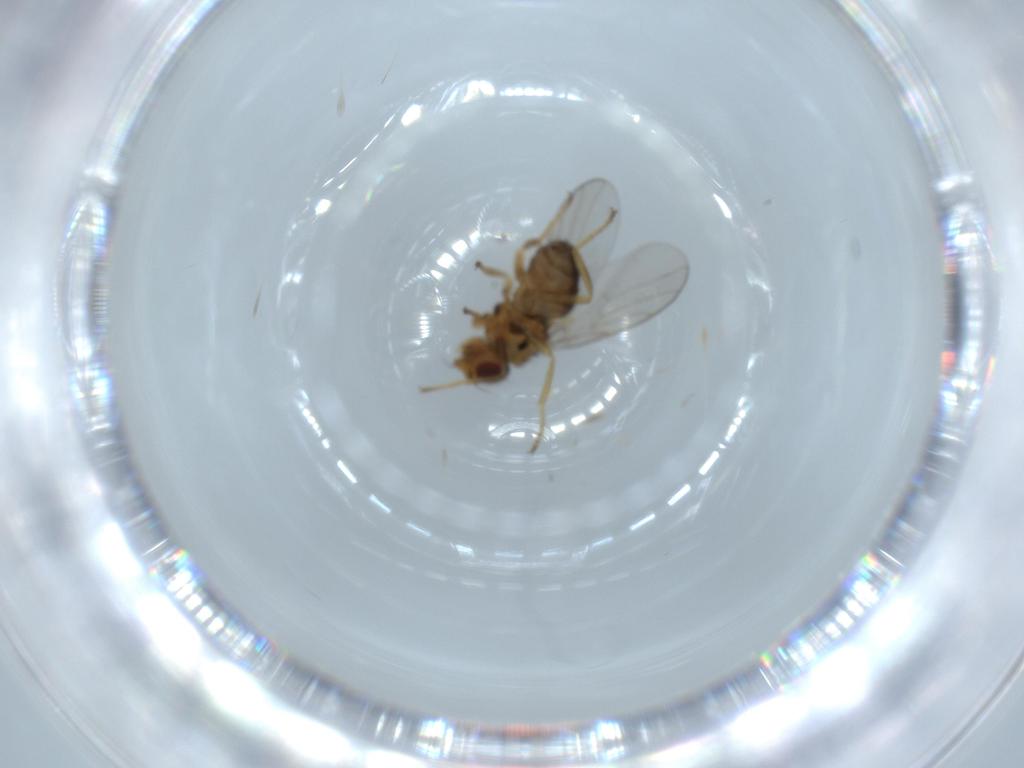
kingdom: Animalia
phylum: Arthropoda
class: Insecta
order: Diptera
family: Chloropidae
